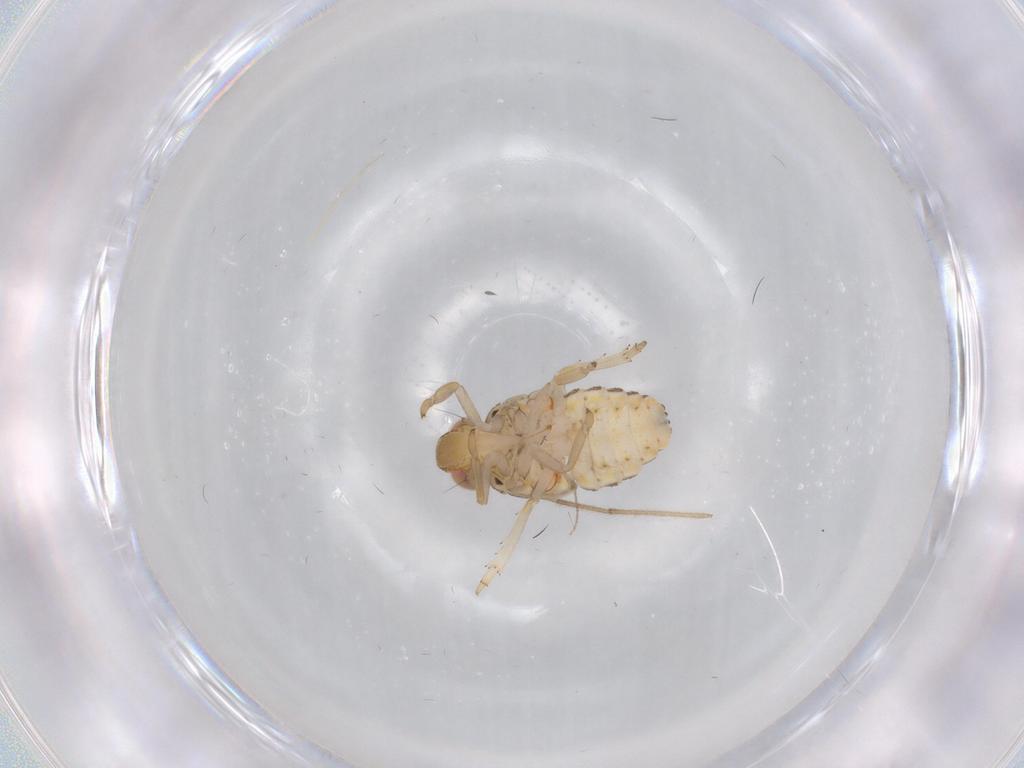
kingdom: Animalia
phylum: Arthropoda
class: Insecta
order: Hemiptera
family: Issidae
